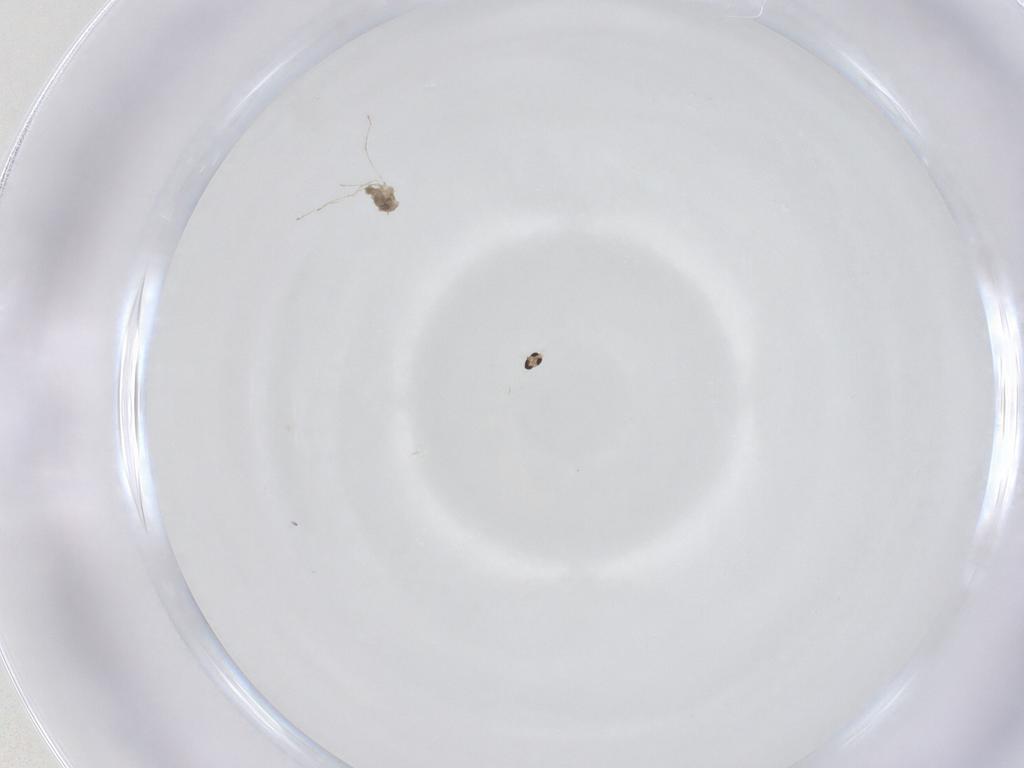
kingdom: Animalia
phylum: Arthropoda
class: Insecta
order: Diptera
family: Cecidomyiidae
